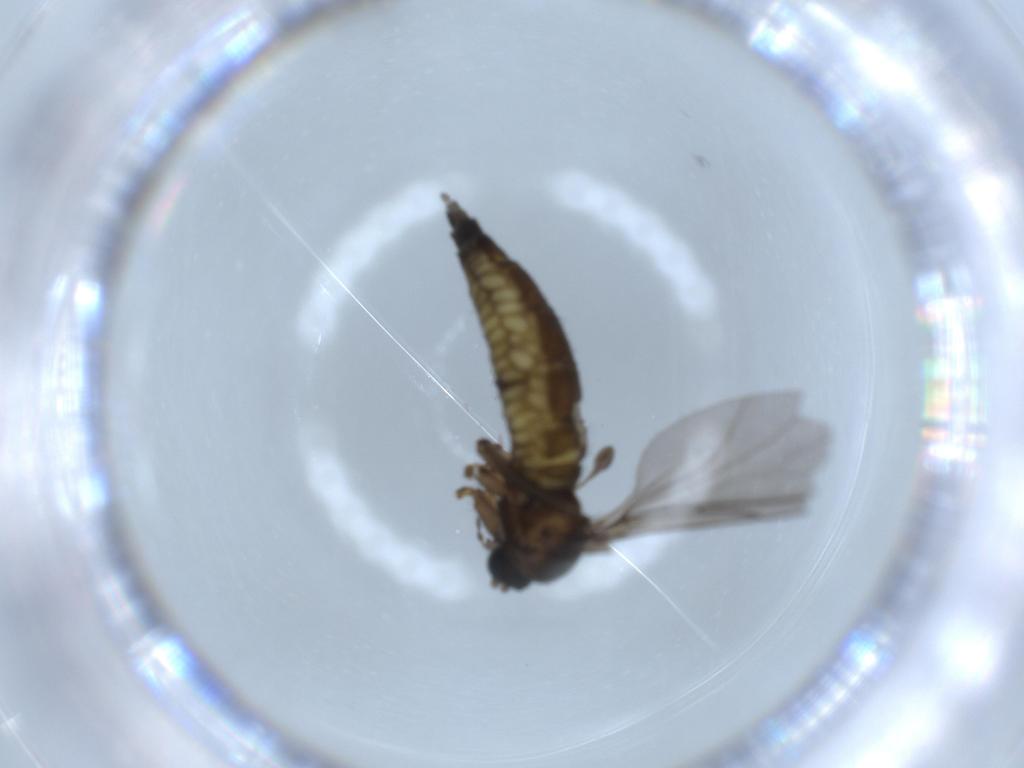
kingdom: Animalia
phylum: Arthropoda
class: Insecta
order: Diptera
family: Sciaridae
